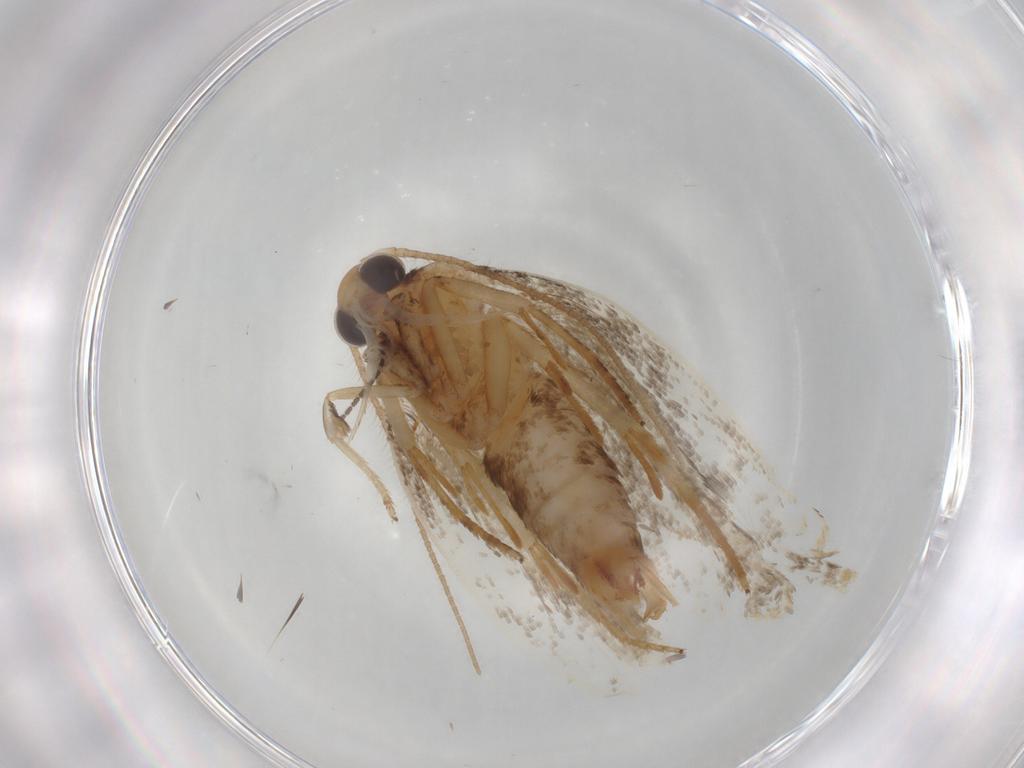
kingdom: Animalia
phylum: Arthropoda
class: Insecta
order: Lepidoptera
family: Crambidae
